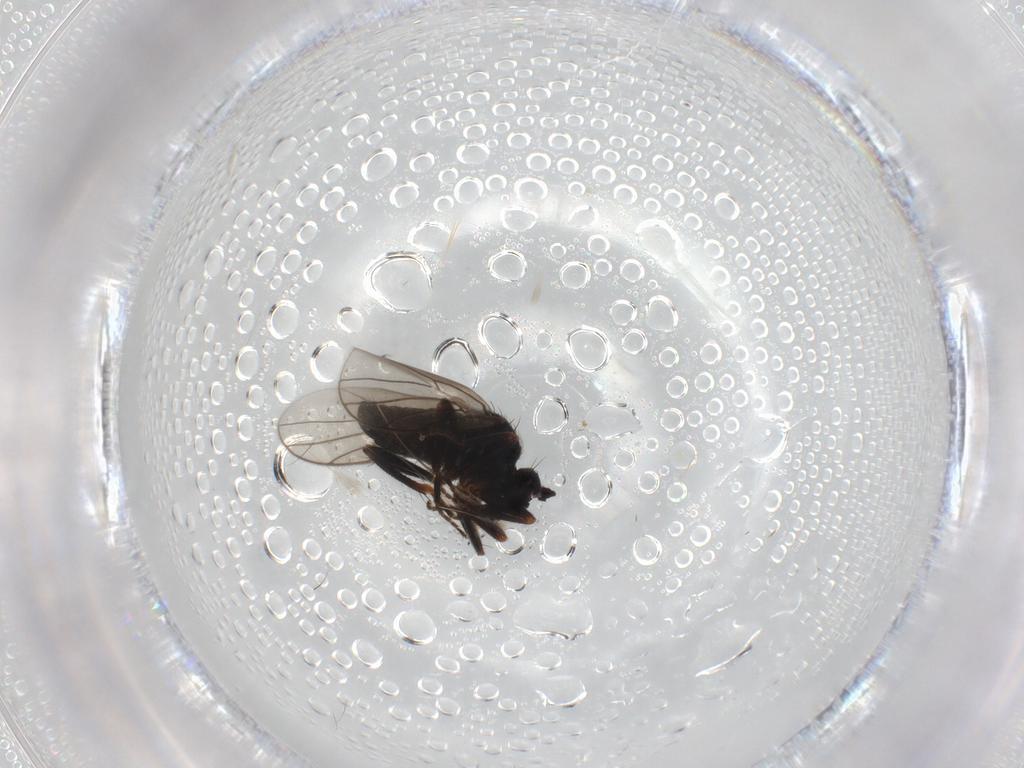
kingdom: Animalia
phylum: Arthropoda
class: Insecta
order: Diptera
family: Hybotidae
